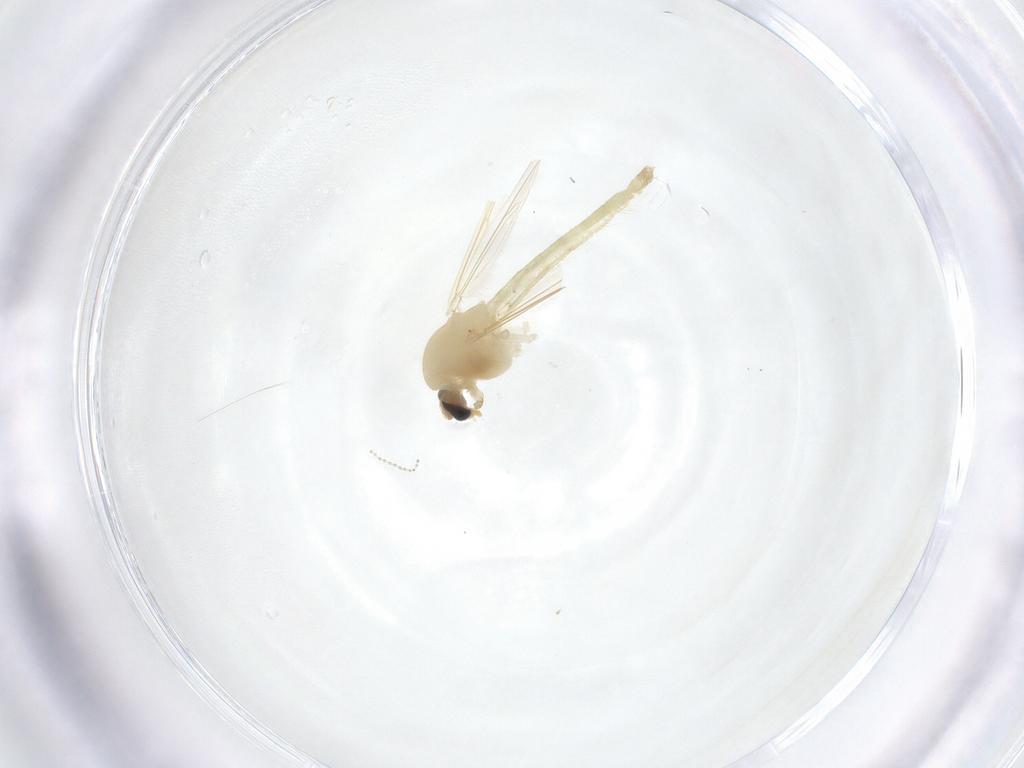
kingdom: Animalia
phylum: Arthropoda
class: Insecta
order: Diptera
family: Chironomidae
